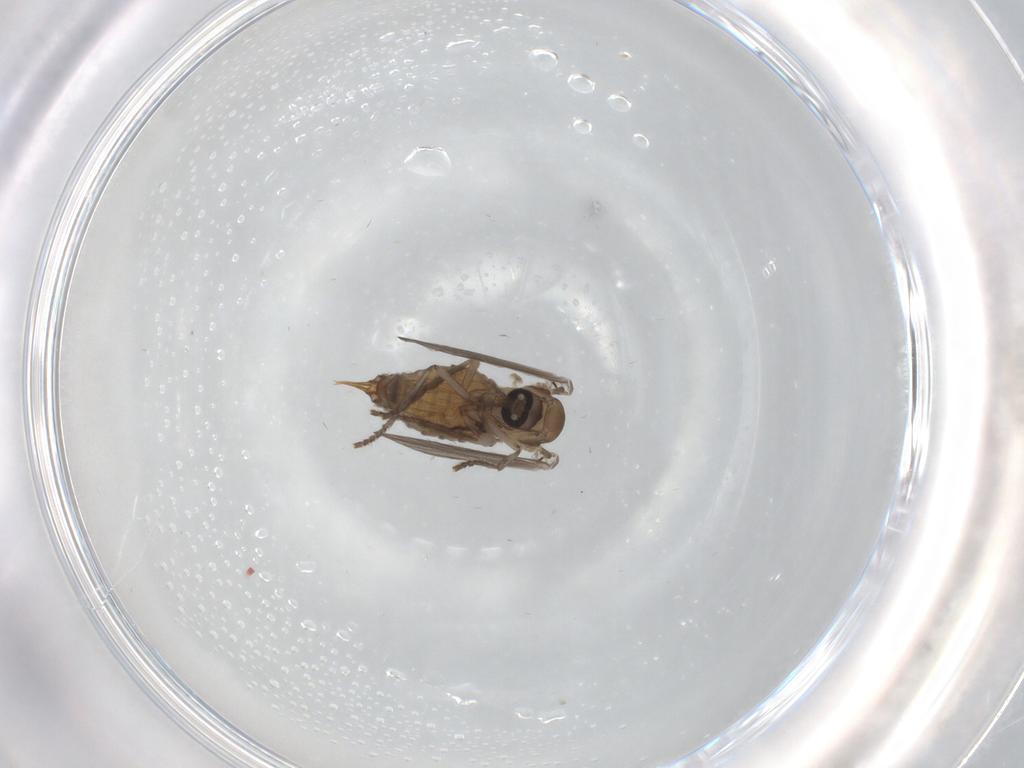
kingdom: Animalia
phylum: Arthropoda
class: Insecta
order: Diptera
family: Psychodidae
